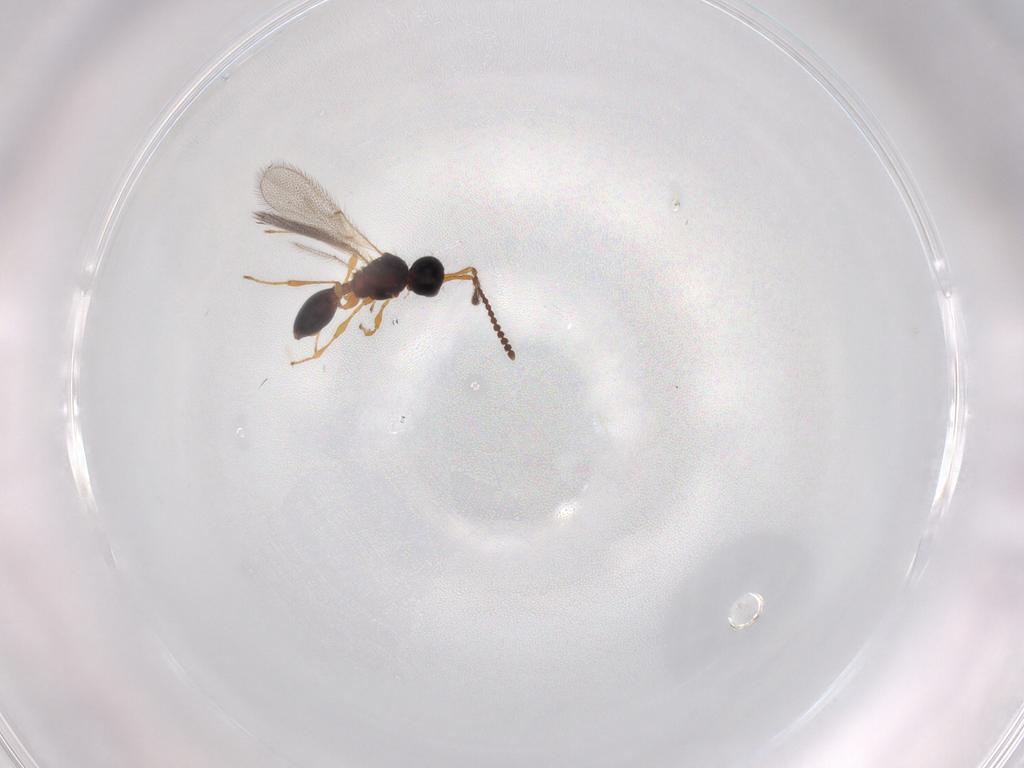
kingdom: Animalia
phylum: Arthropoda
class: Insecta
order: Hymenoptera
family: Diapriidae
